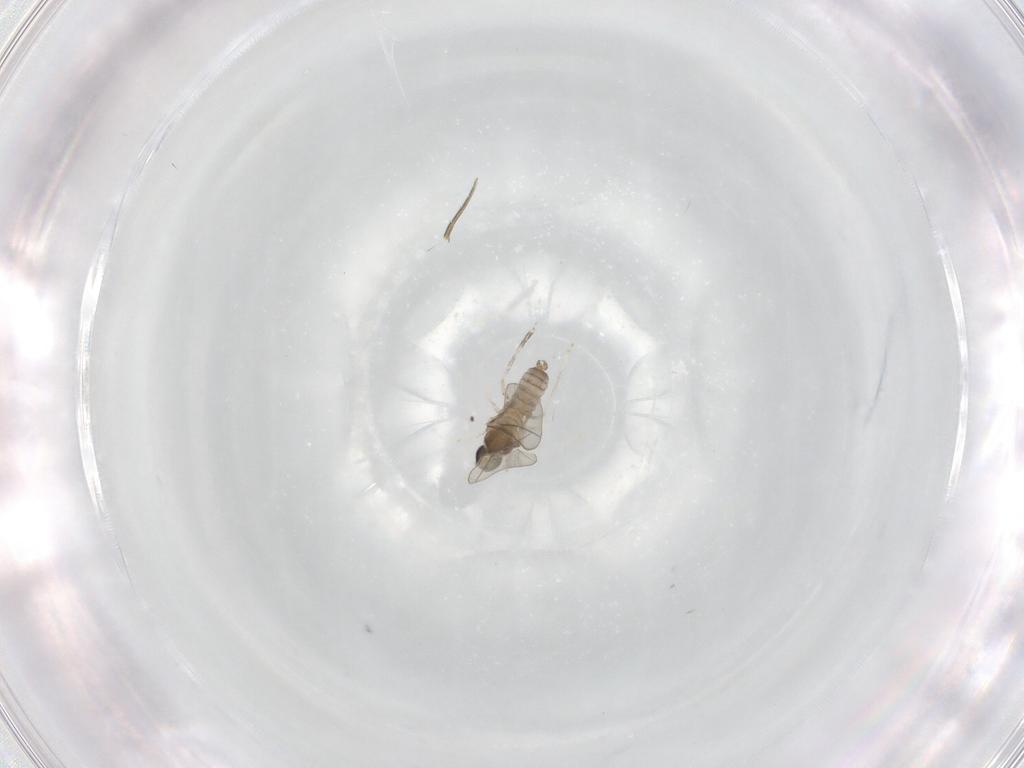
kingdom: Animalia
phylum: Arthropoda
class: Insecta
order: Diptera
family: Cecidomyiidae
